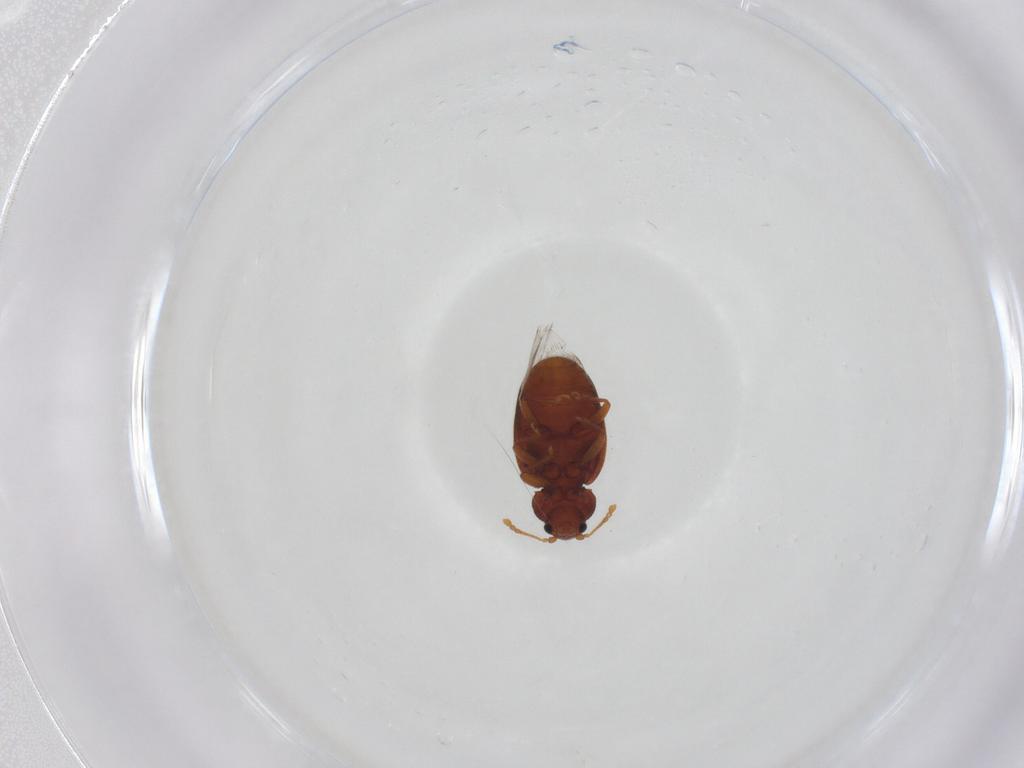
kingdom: Animalia
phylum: Arthropoda
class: Insecta
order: Coleoptera
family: Latridiidae
